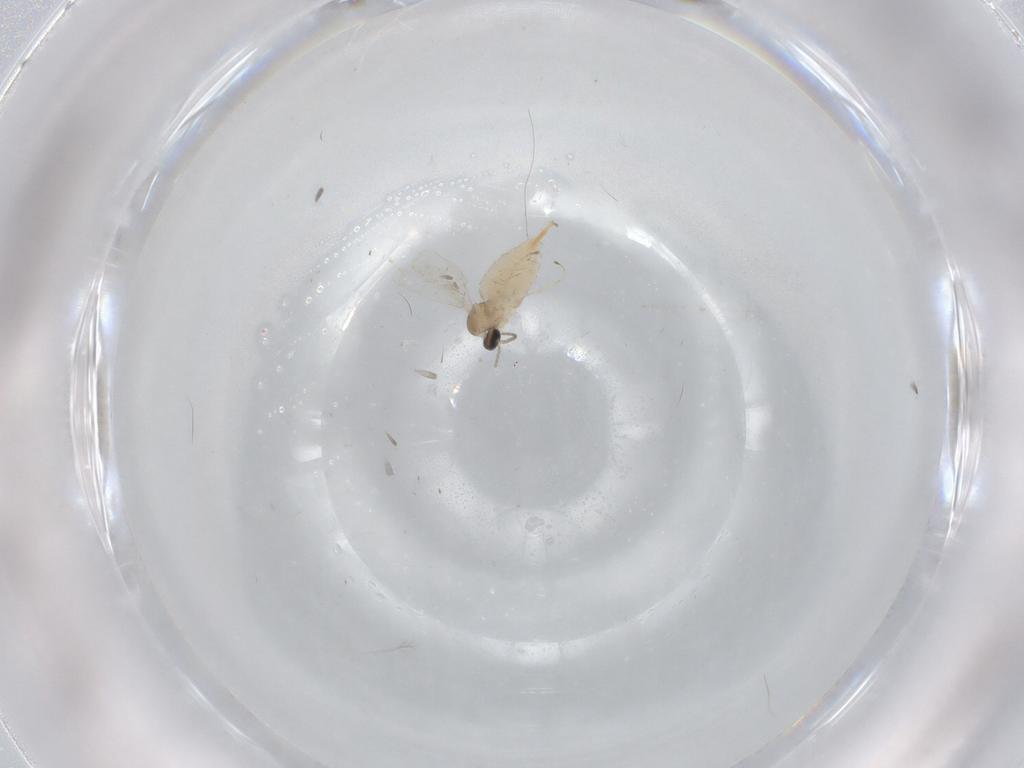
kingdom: Animalia
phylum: Arthropoda
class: Insecta
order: Diptera
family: Cecidomyiidae
